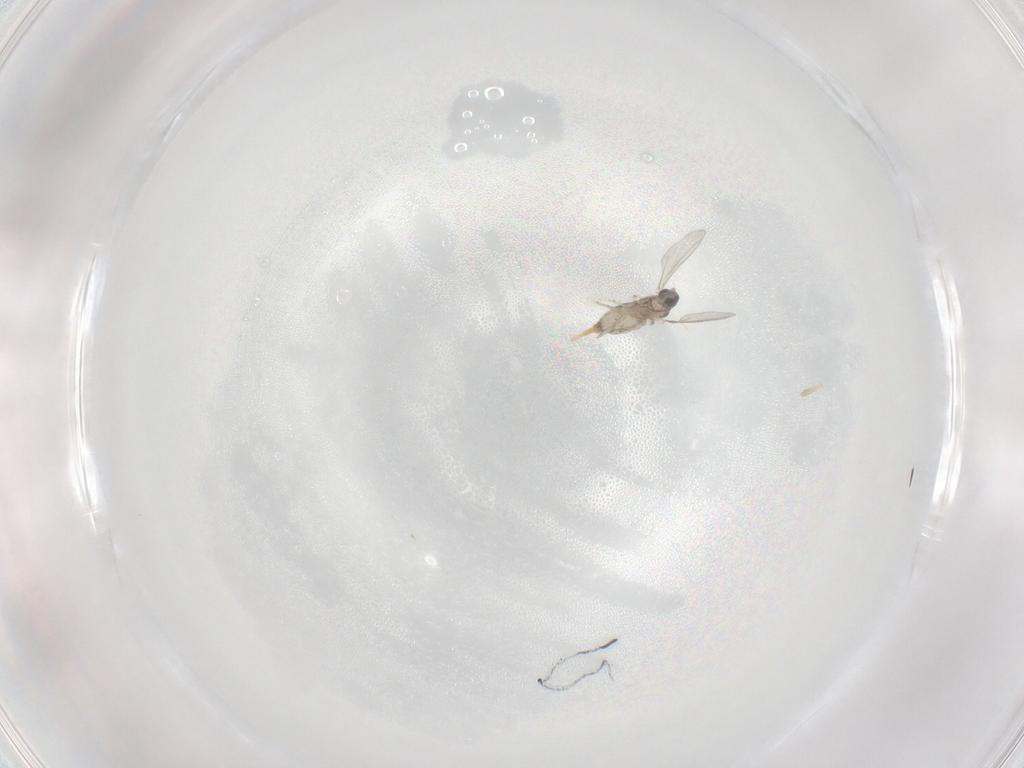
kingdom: Animalia
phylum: Arthropoda
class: Insecta
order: Diptera
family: Cecidomyiidae
